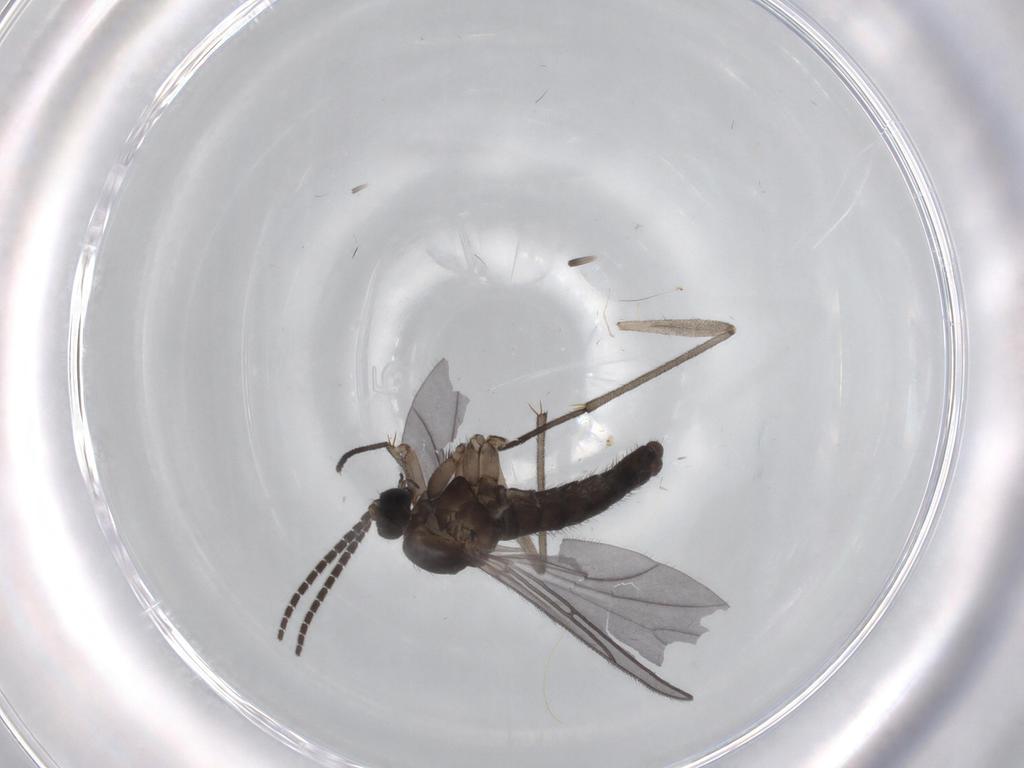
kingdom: Animalia
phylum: Arthropoda
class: Insecta
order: Diptera
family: Sciaridae
